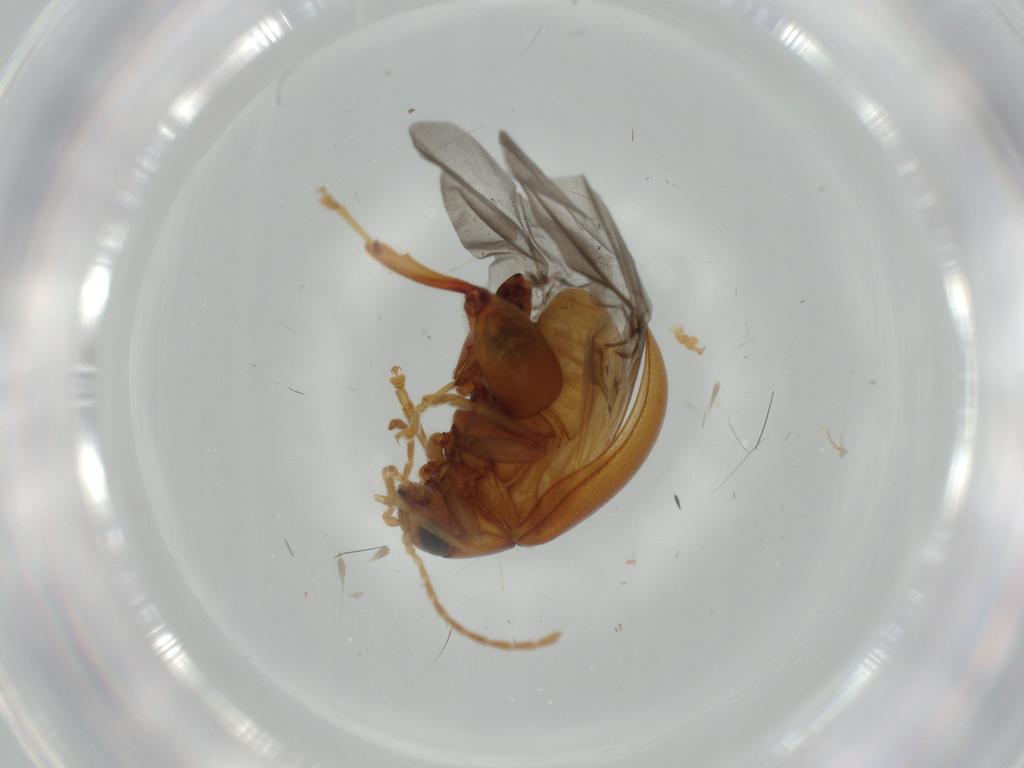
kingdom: Animalia
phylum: Arthropoda
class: Insecta
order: Coleoptera
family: Chrysomelidae
